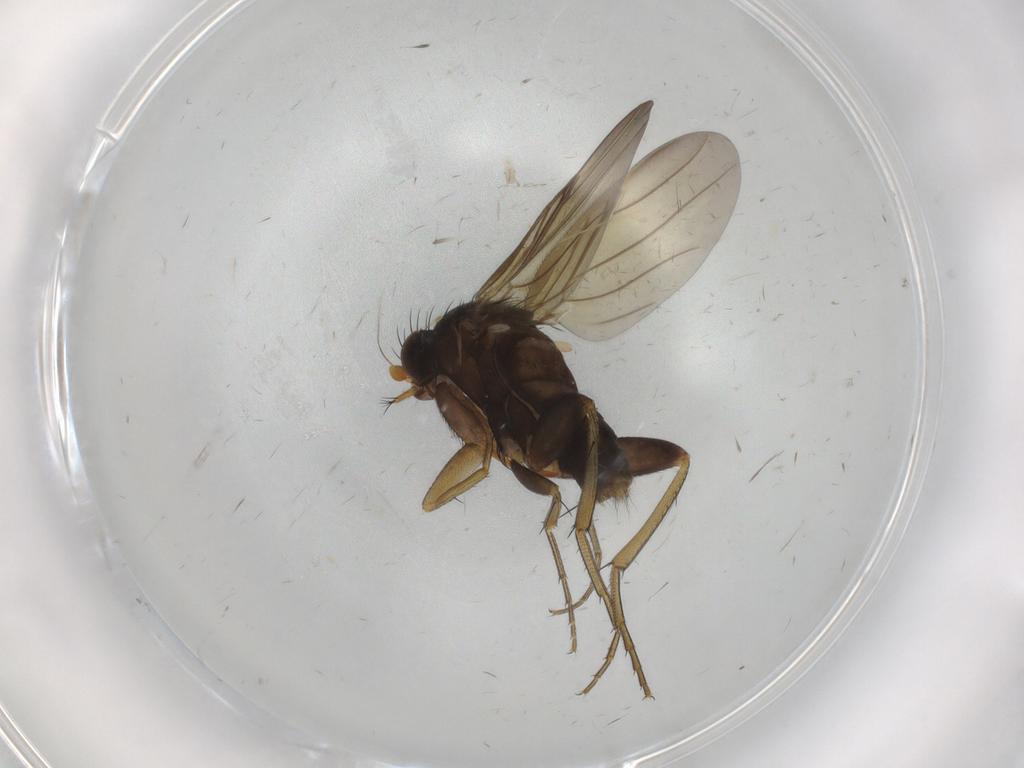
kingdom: Animalia
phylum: Arthropoda
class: Insecta
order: Diptera
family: Phoridae
